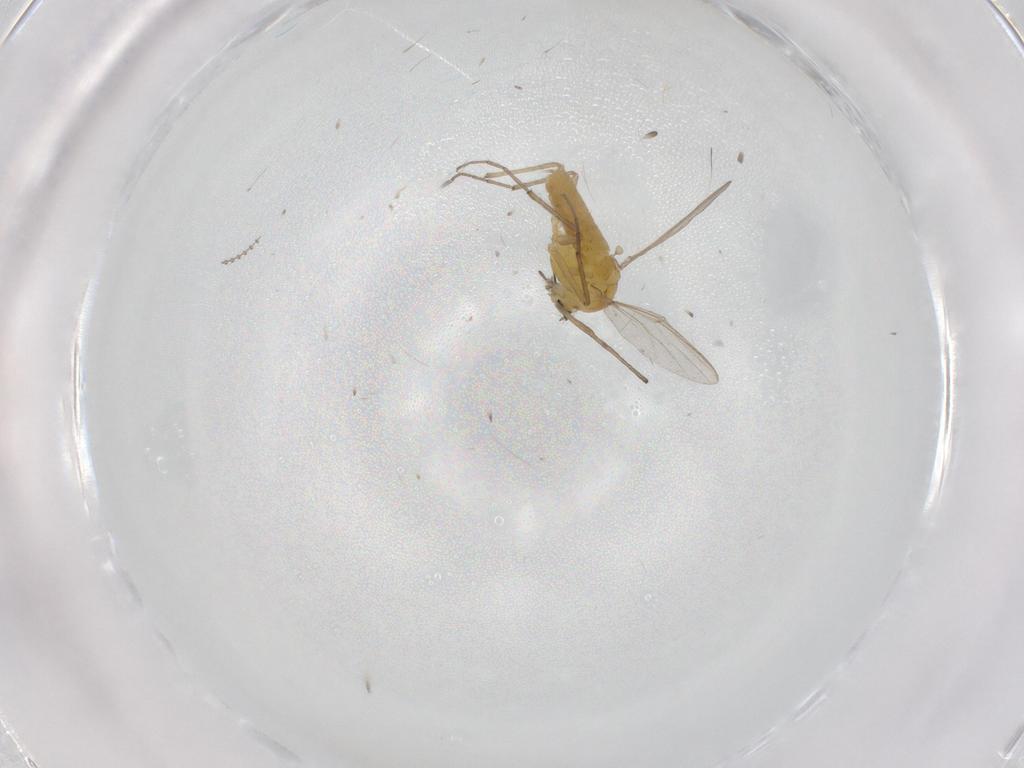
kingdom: Animalia
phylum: Arthropoda
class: Insecta
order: Diptera
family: Chironomidae
